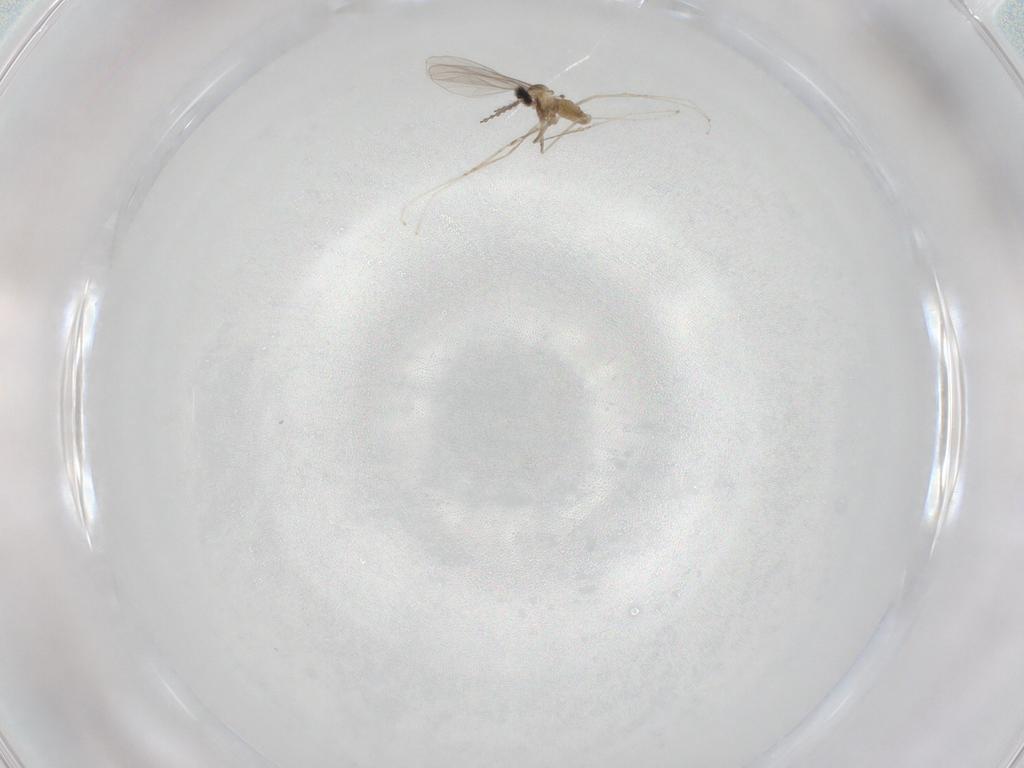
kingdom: Animalia
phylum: Arthropoda
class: Insecta
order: Diptera
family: Cecidomyiidae
